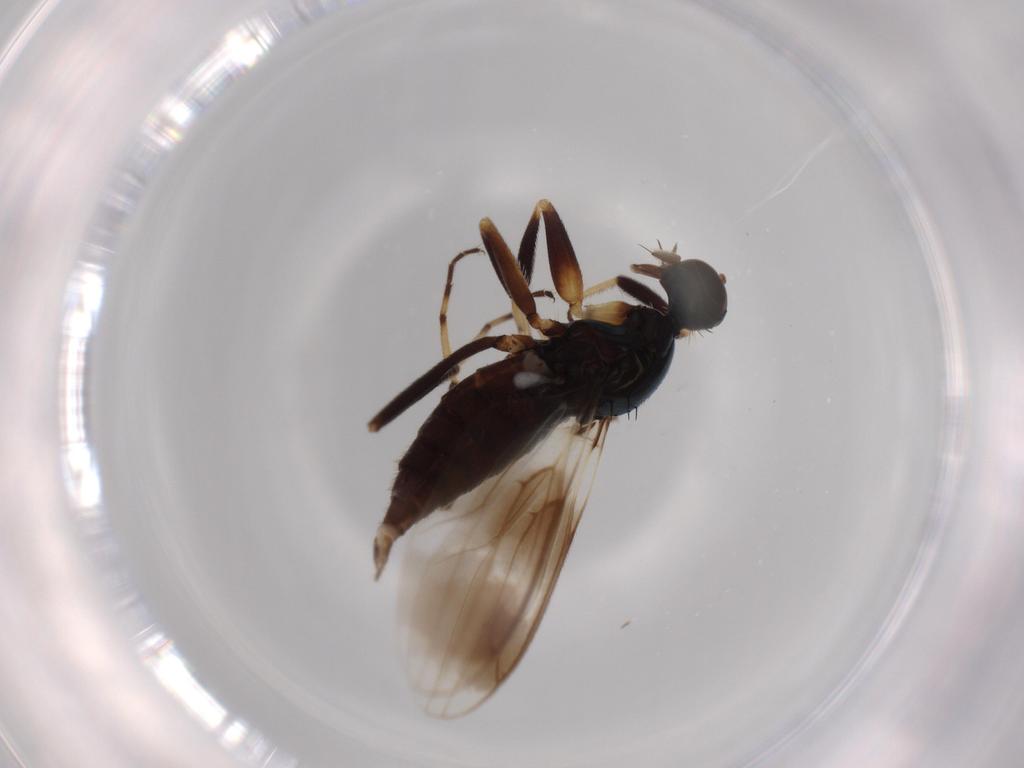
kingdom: Animalia
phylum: Arthropoda
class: Insecta
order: Diptera
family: Hybotidae
